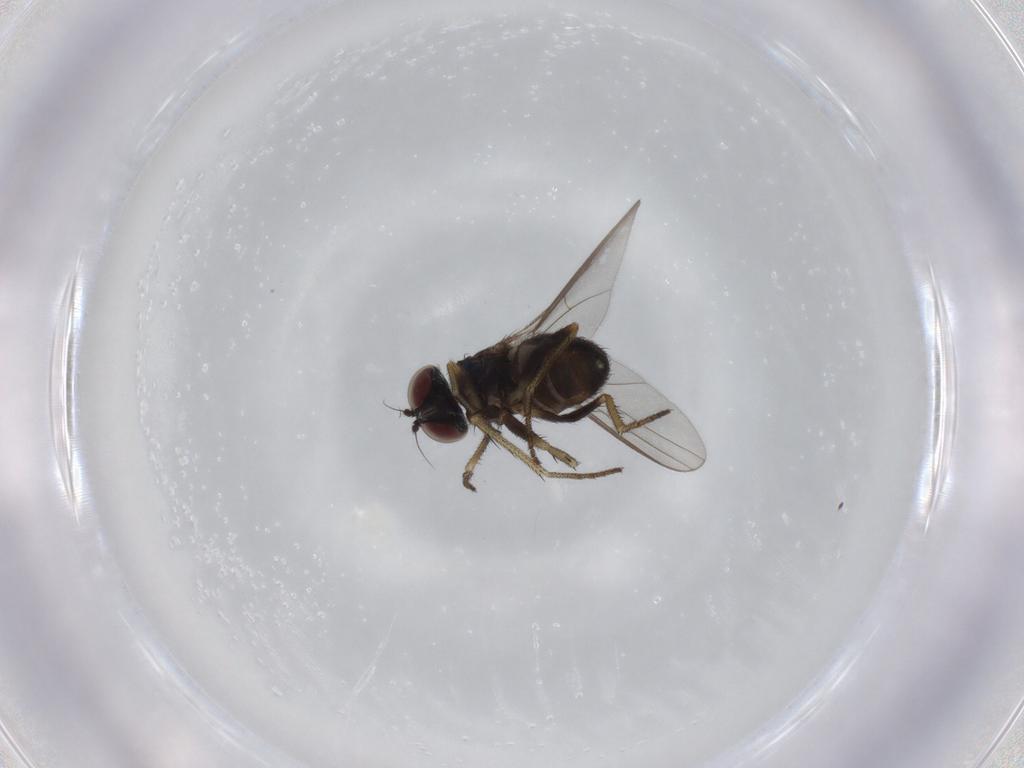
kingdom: Animalia
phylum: Arthropoda
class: Insecta
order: Diptera
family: Dolichopodidae
